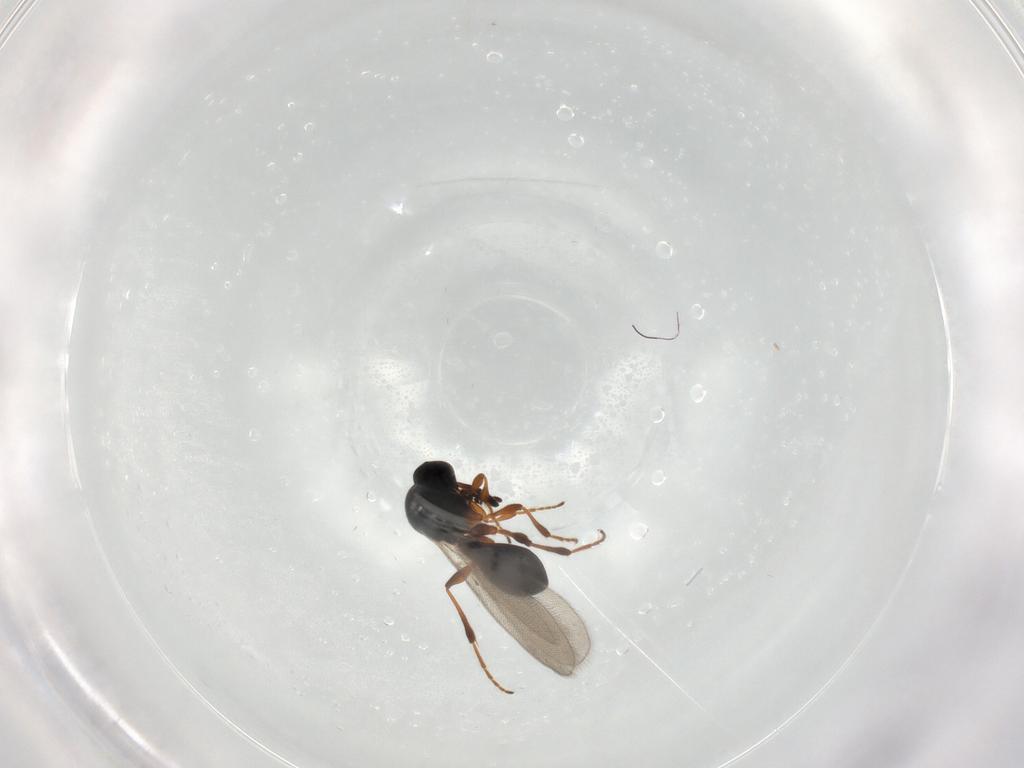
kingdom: Animalia
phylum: Arthropoda
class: Insecta
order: Hymenoptera
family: Platygastridae
